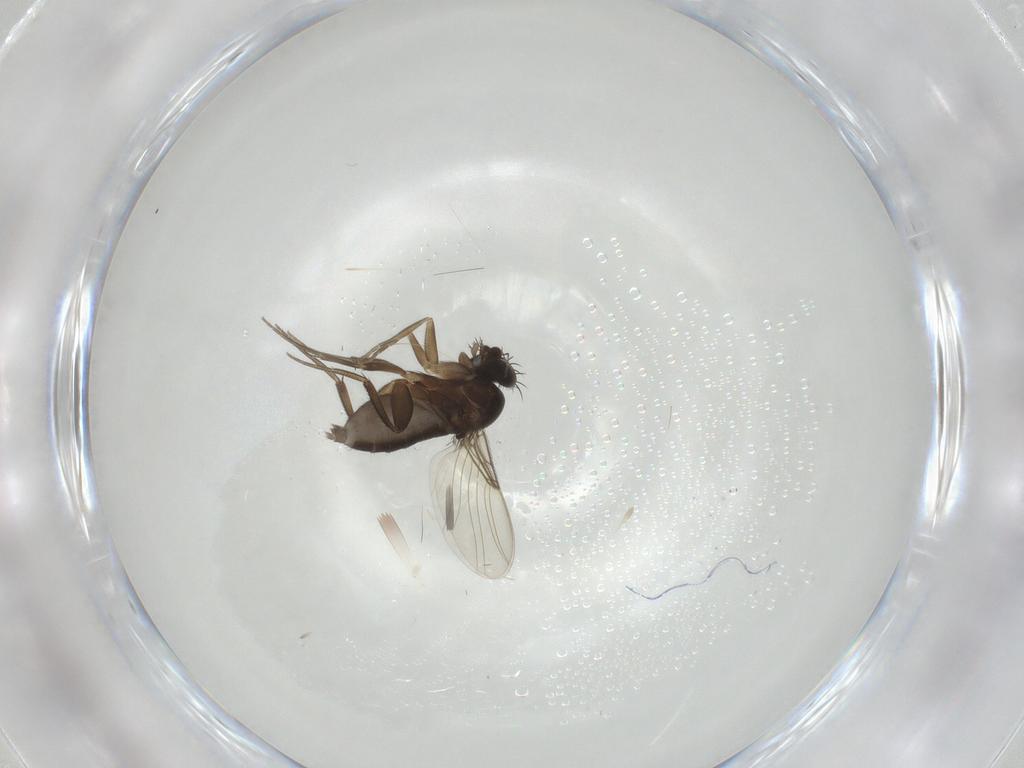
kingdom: Animalia
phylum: Arthropoda
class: Insecta
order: Diptera
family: Phoridae
